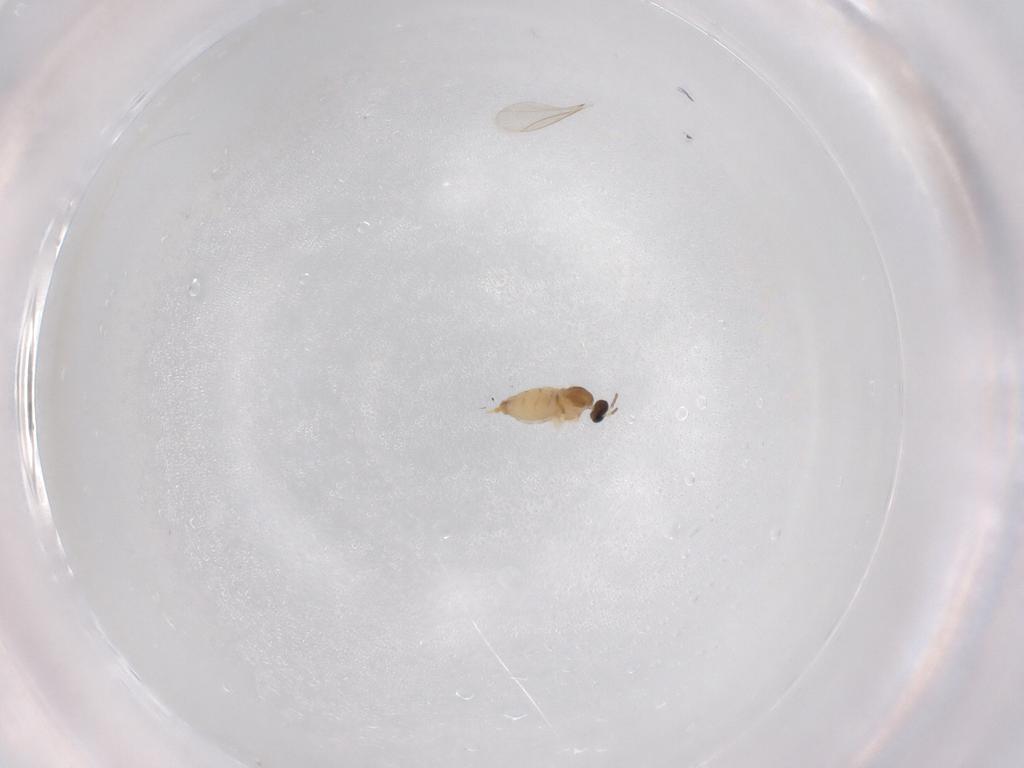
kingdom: Animalia
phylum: Arthropoda
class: Insecta
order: Diptera
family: Cecidomyiidae
